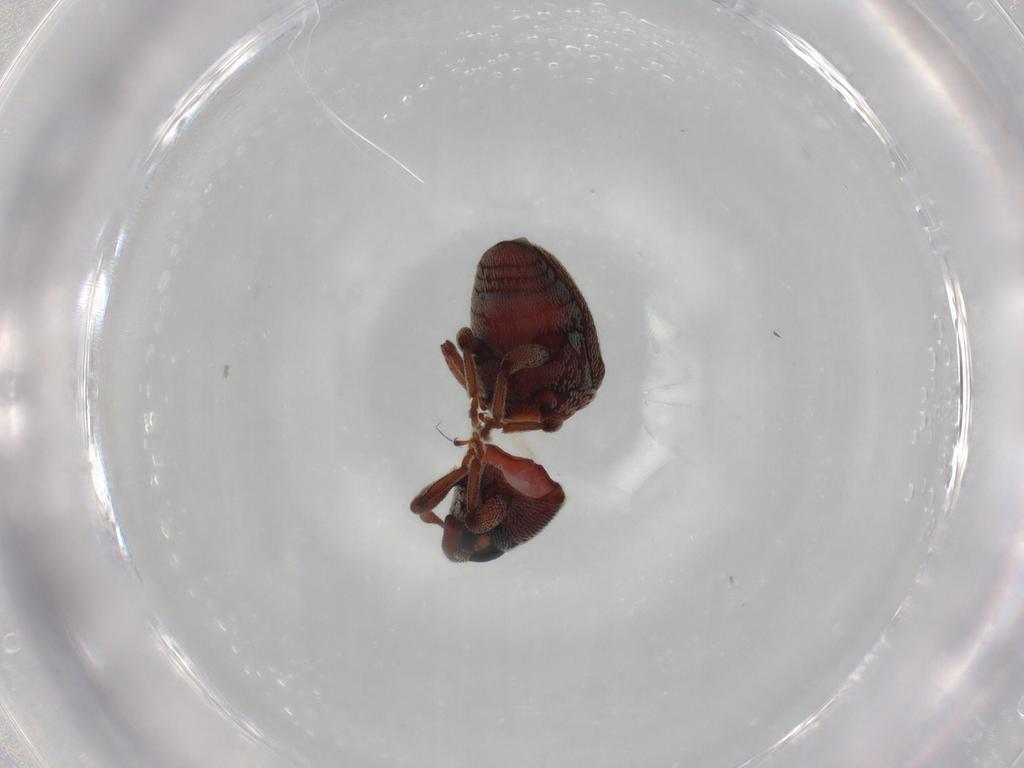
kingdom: Animalia
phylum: Arthropoda
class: Insecta
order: Coleoptera
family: Curculionidae
